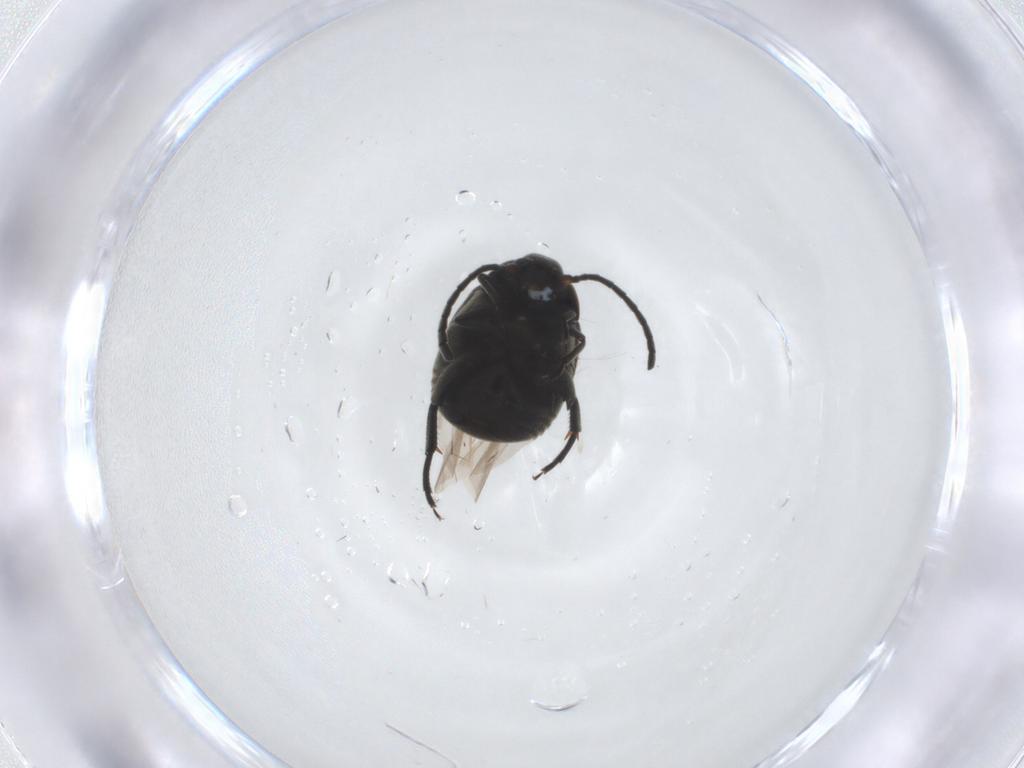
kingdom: Animalia
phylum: Arthropoda
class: Insecta
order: Coleoptera
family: Chrysomelidae
